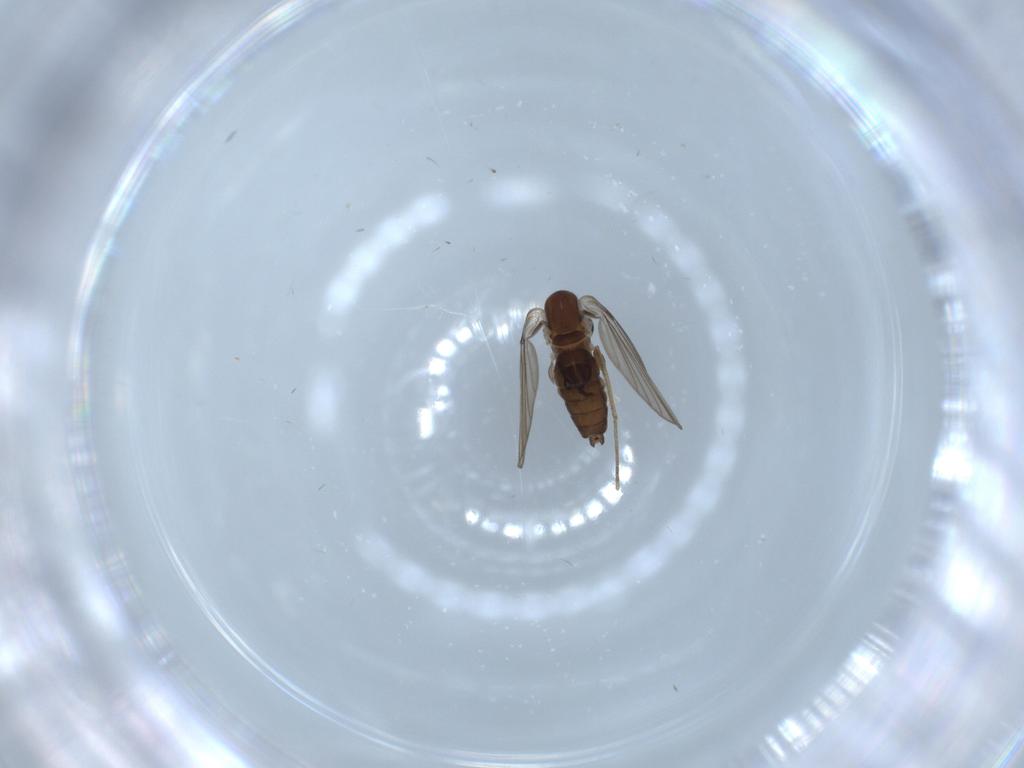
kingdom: Animalia
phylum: Arthropoda
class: Insecta
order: Diptera
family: Psychodidae
